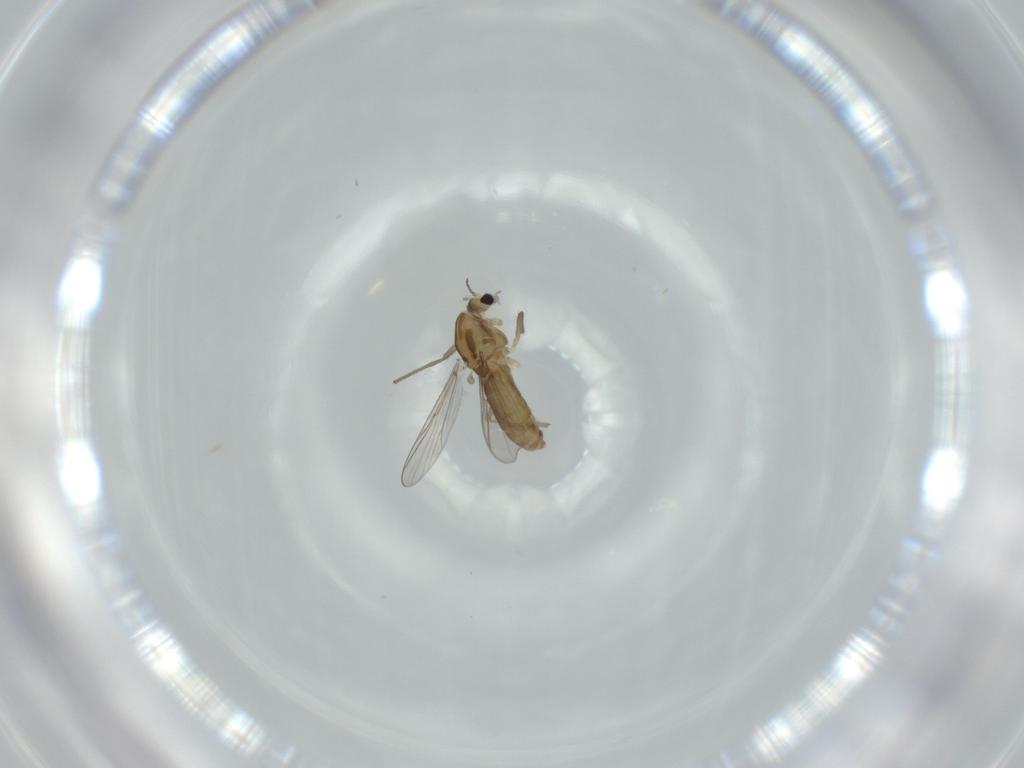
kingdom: Animalia
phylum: Arthropoda
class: Insecta
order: Diptera
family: Chironomidae
